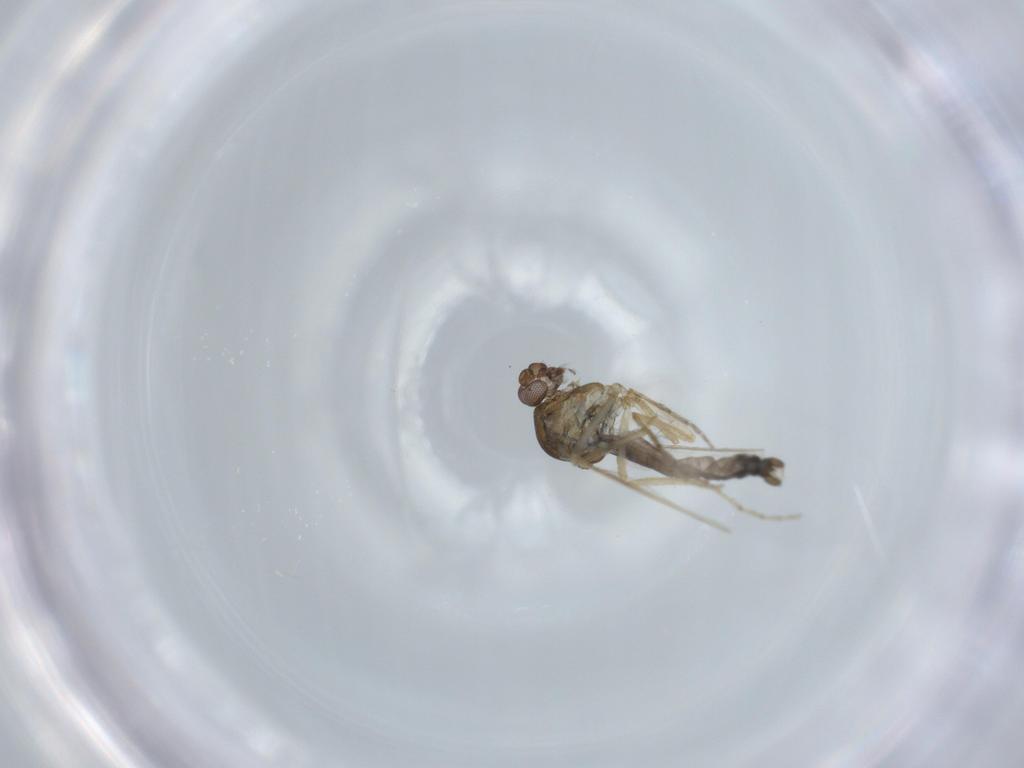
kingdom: Animalia
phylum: Arthropoda
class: Insecta
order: Diptera
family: Ceratopogonidae
